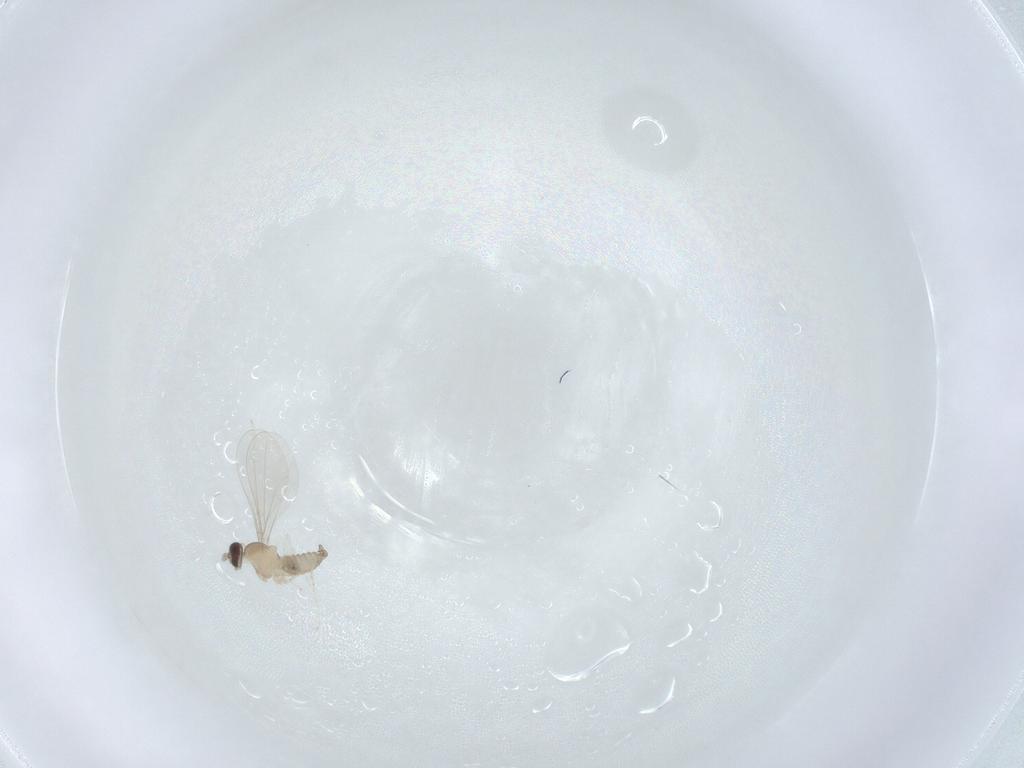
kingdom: Animalia
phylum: Arthropoda
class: Insecta
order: Diptera
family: Cecidomyiidae
